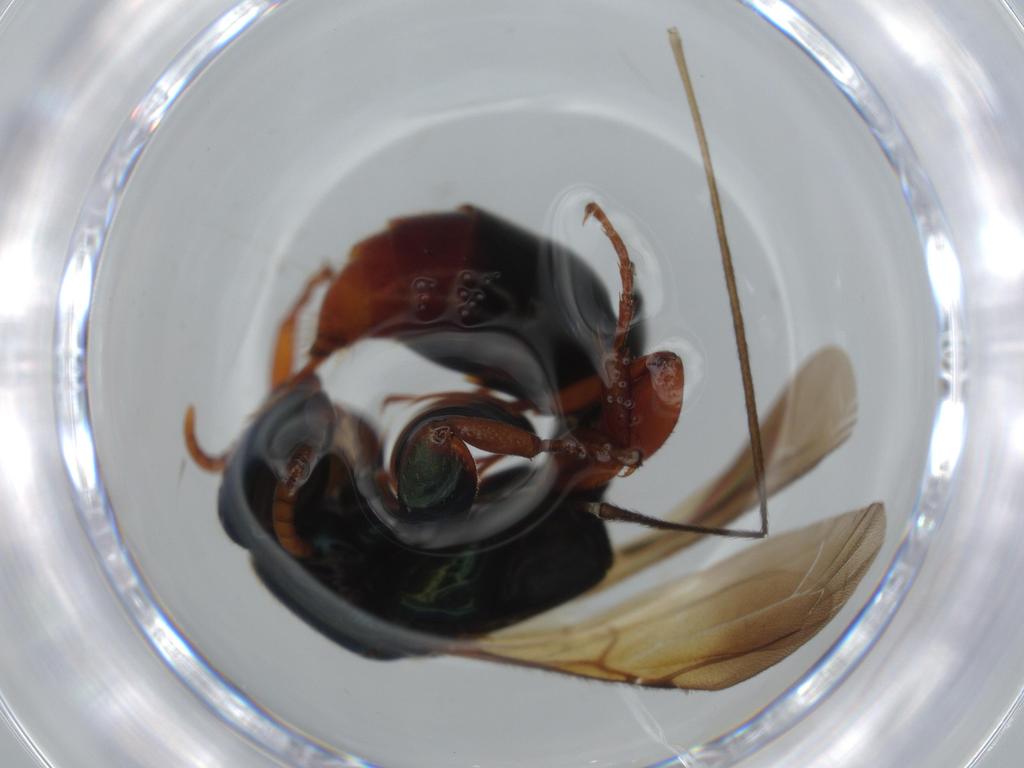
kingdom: Animalia
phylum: Arthropoda
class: Insecta
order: Hymenoptera
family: Bethylidae
